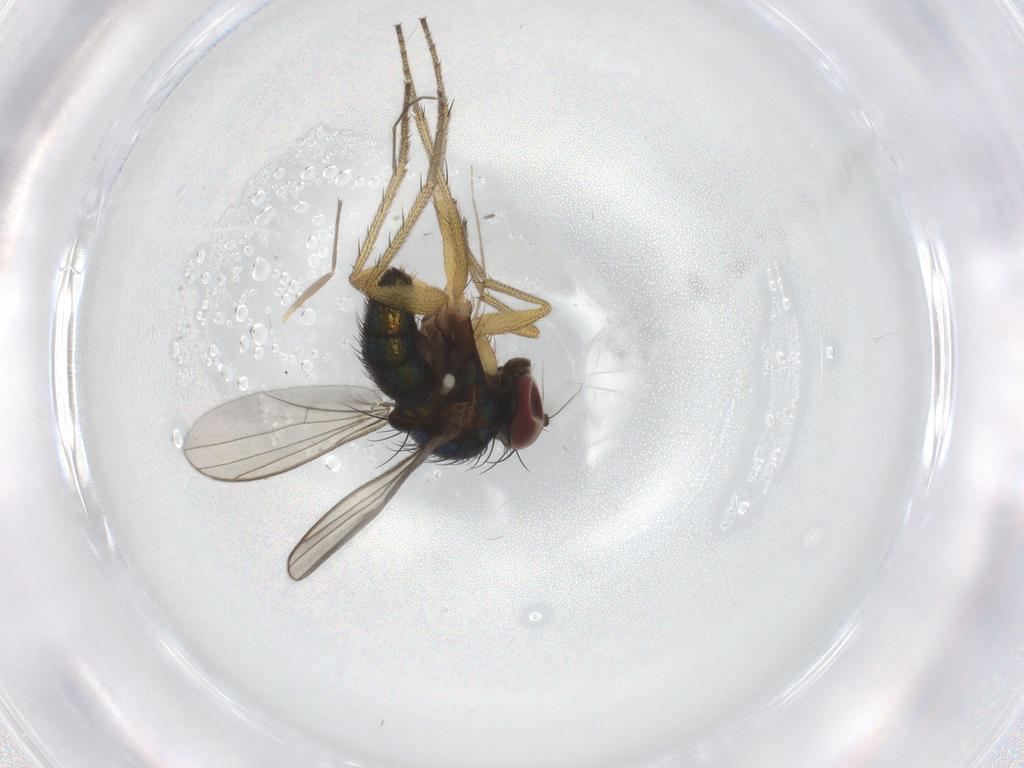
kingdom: Animalia
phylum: Arthropoda
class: Insecta
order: Diptera
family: Chironomidae
